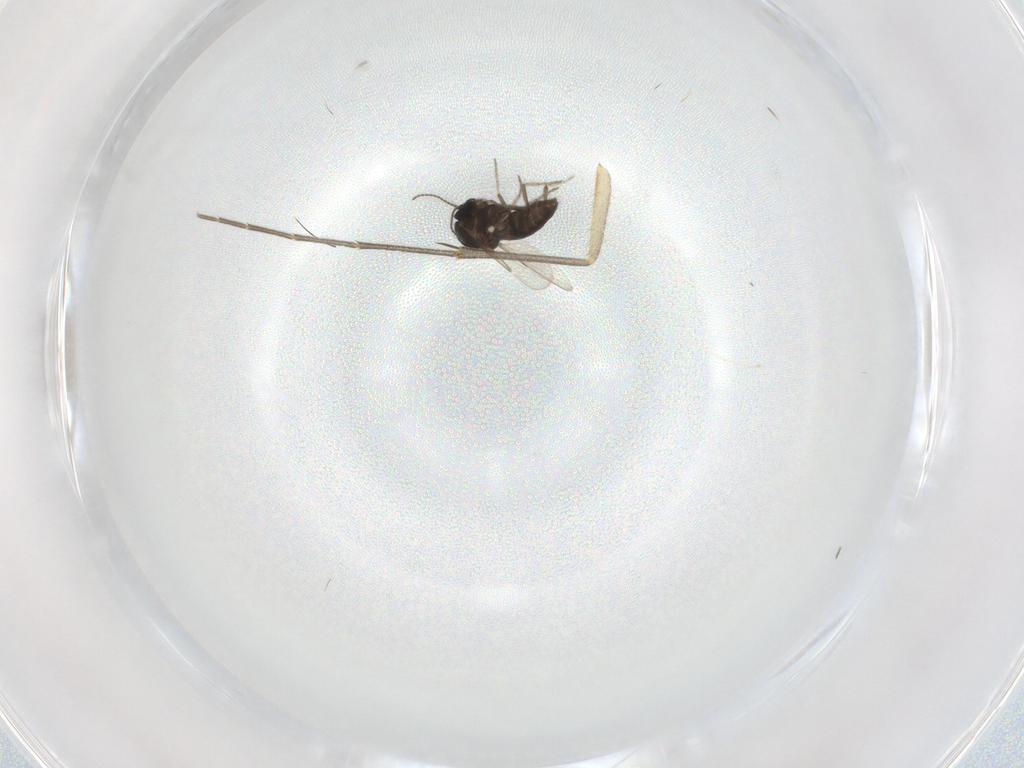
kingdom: Animalia
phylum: Arthropoda
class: Insecta
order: Diptera
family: Ceratopogonidae
